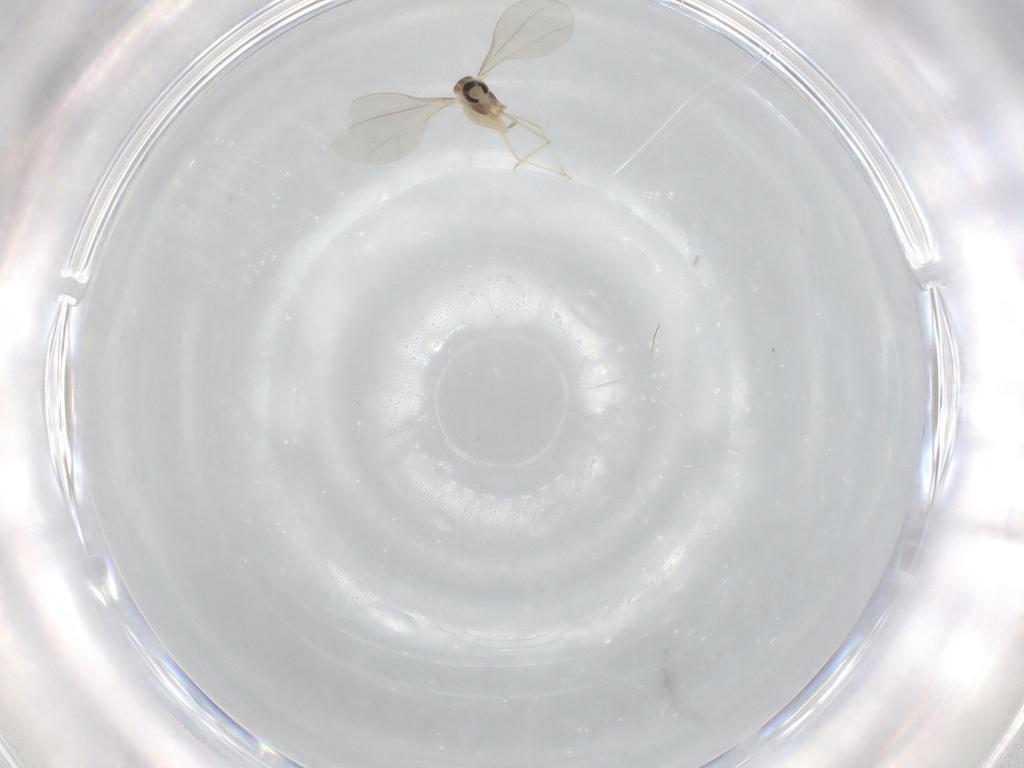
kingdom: Animalia
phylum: Arthropoda
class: Insecta
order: Diptera
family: Cecidomyiidae
